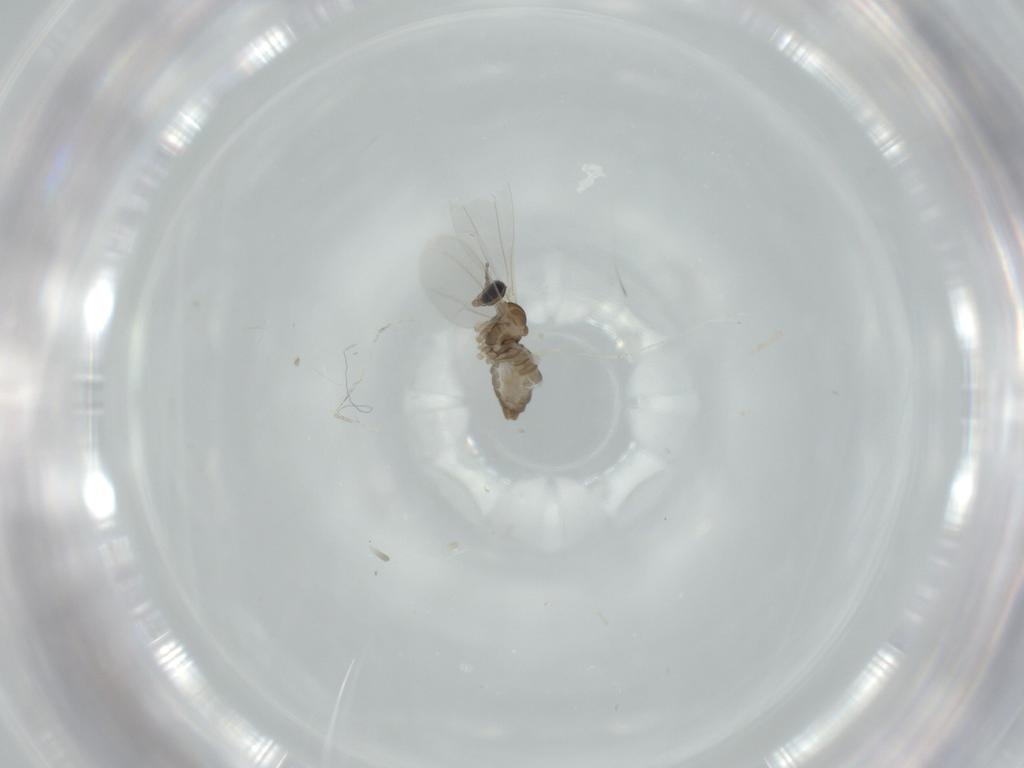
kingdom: Animalia
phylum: Arthropoda
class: Insecta
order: Diptera
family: Cecidomyiidae
